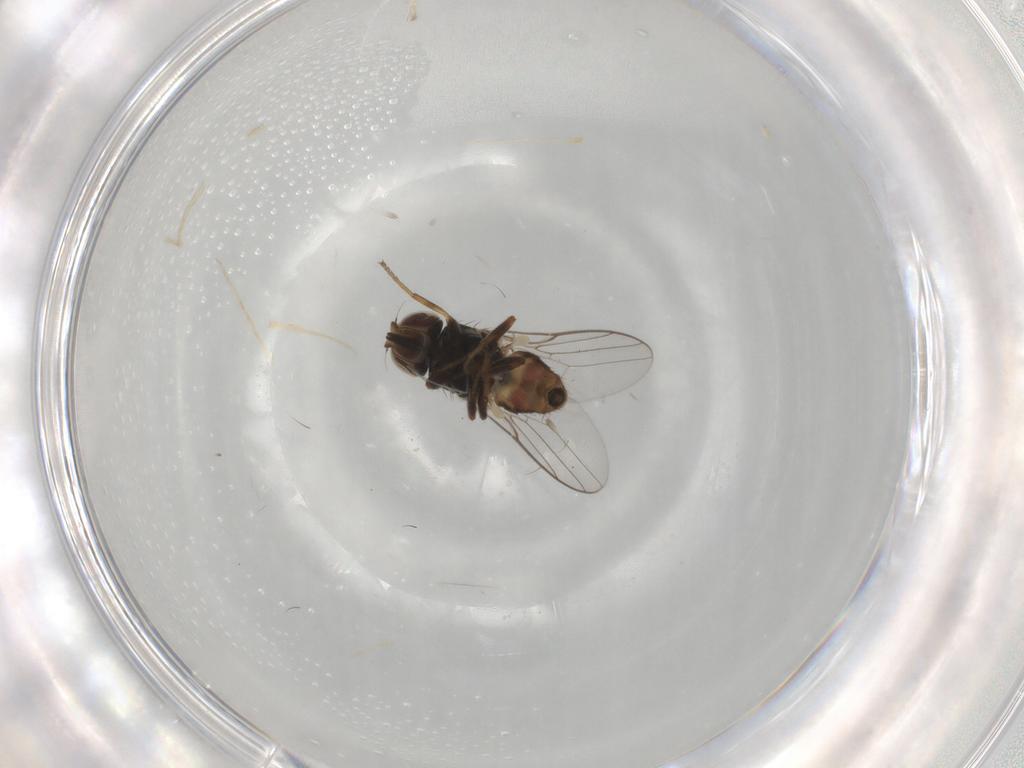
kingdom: Animalia
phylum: Arthropoda
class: Insecta
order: Diptera
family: Chloropidae
